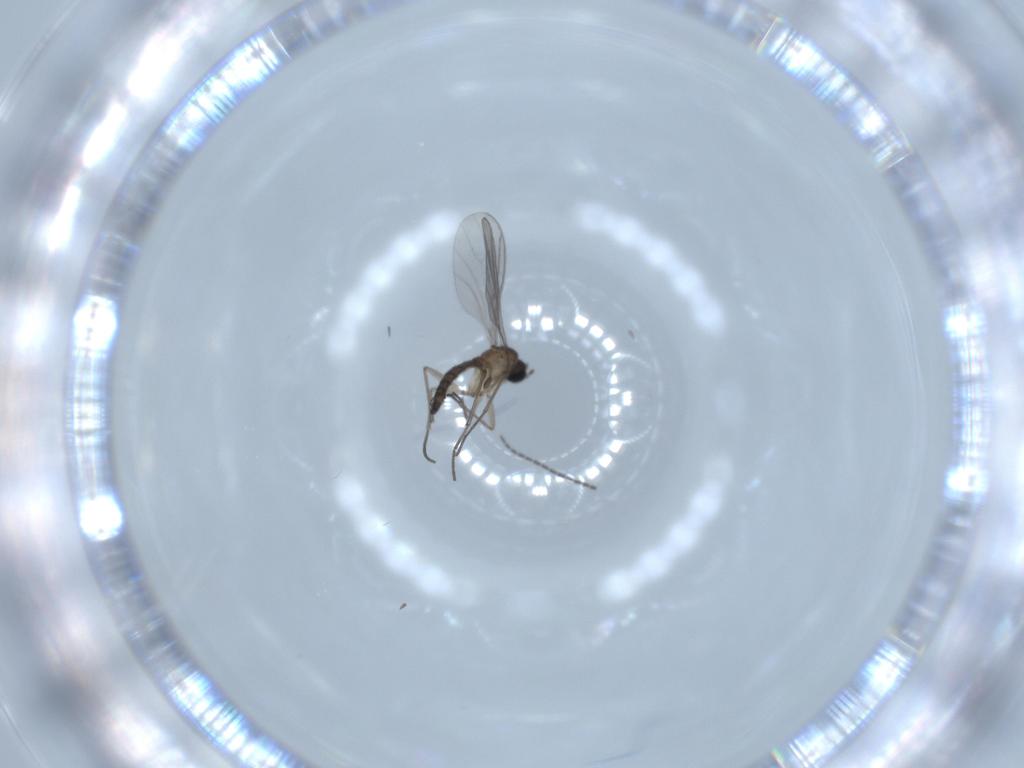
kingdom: Animalia
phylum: Arthropoda
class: Insecta
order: Diptera
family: Sciaridae
